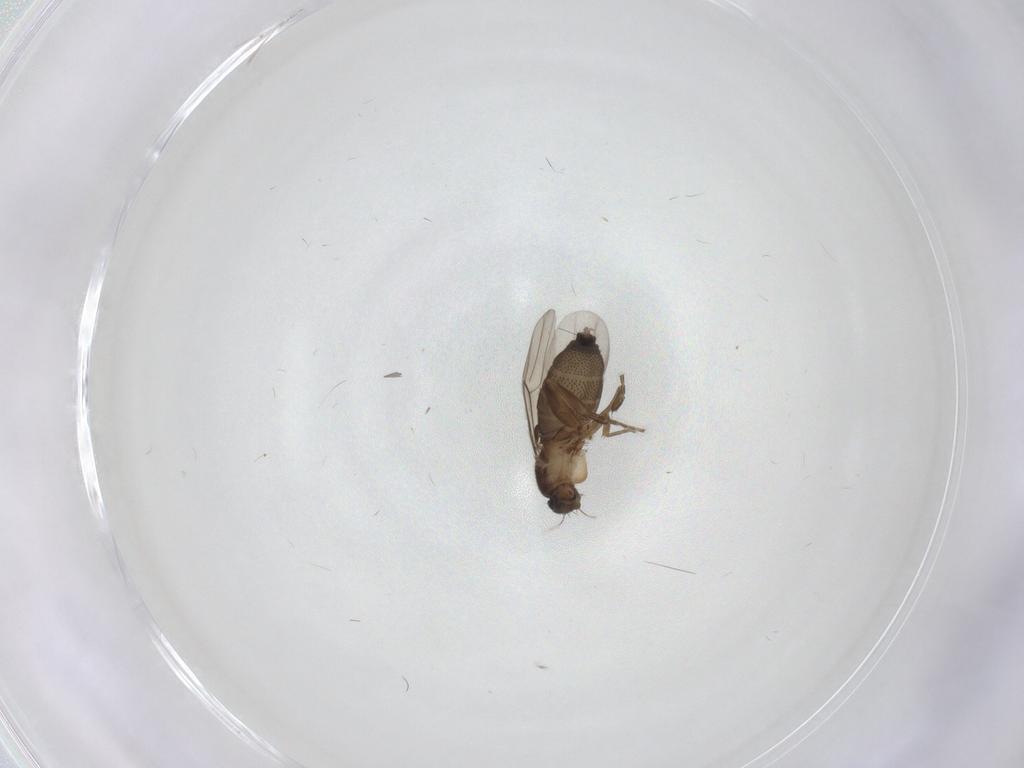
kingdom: Animalia
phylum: Arthropoda
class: Insecta
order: Diptera
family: Phoridae
